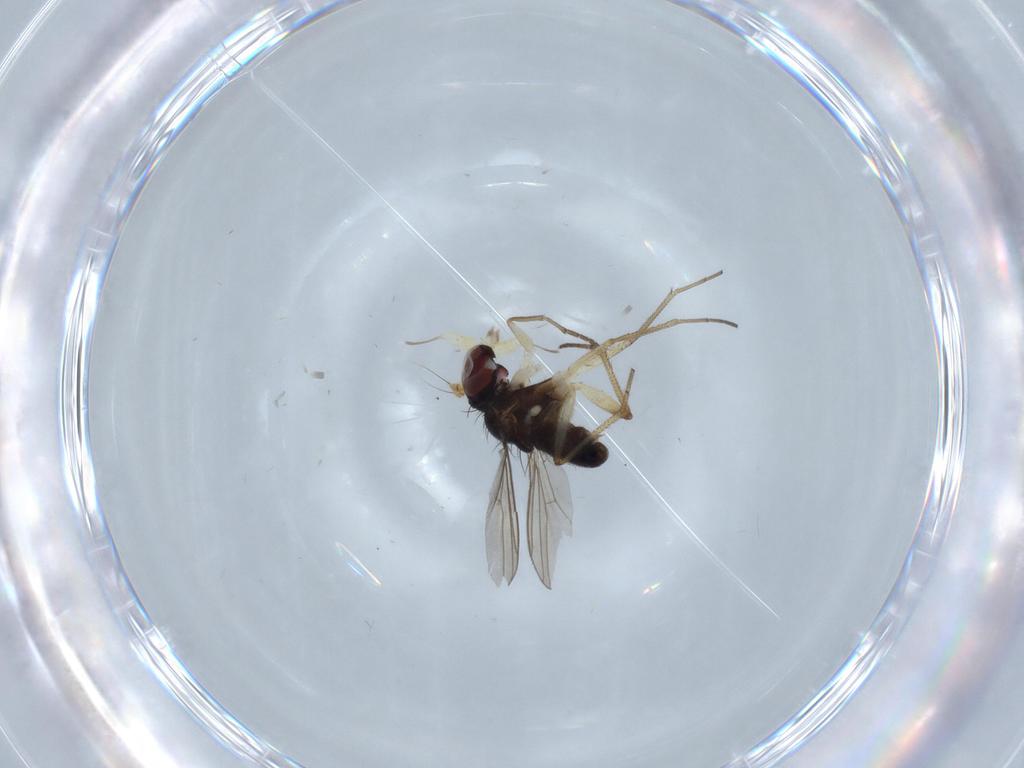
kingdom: Animalia
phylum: Arthropoda
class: Insecta
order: Diptera
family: Dolichopodidae
